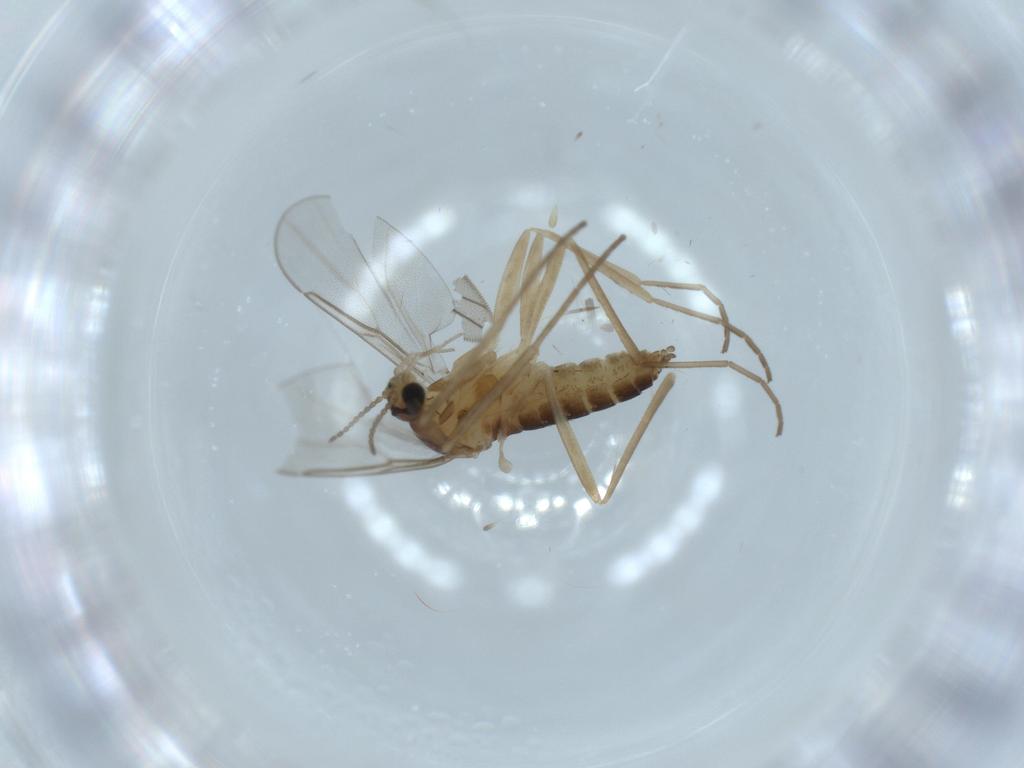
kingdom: Animalia
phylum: Arthropoda
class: Insecta
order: Diptera
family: Cecidomyiidae
